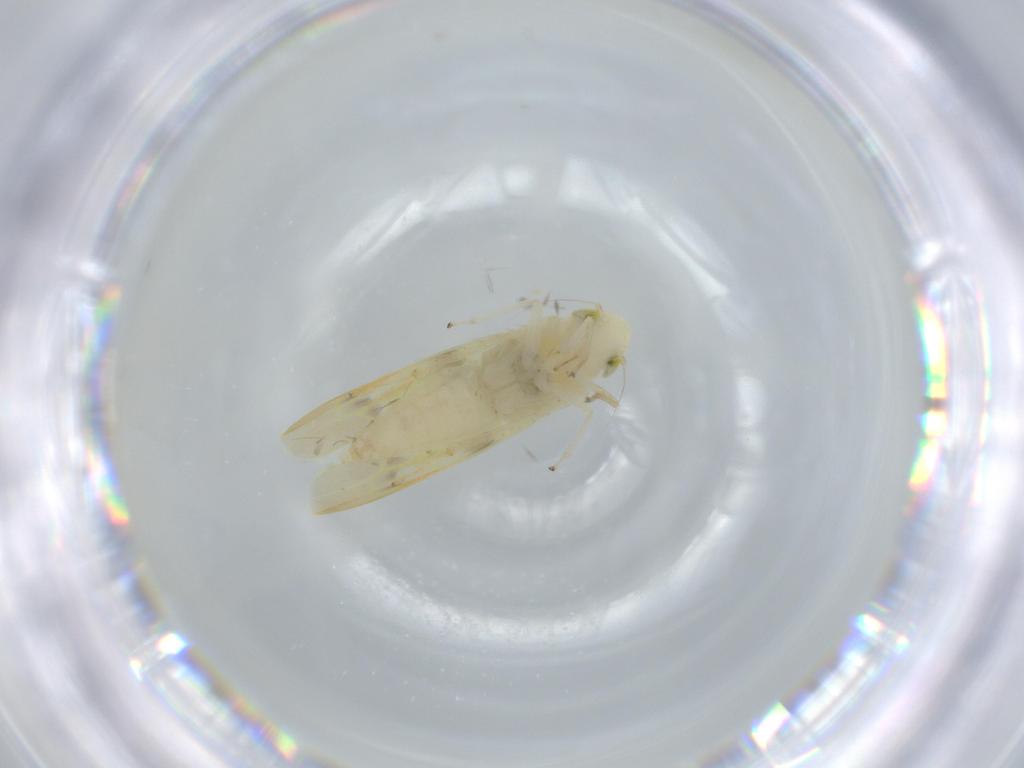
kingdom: Animalia
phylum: Arthropoda
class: Insecta
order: Hemiptera
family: Cicadellidae
